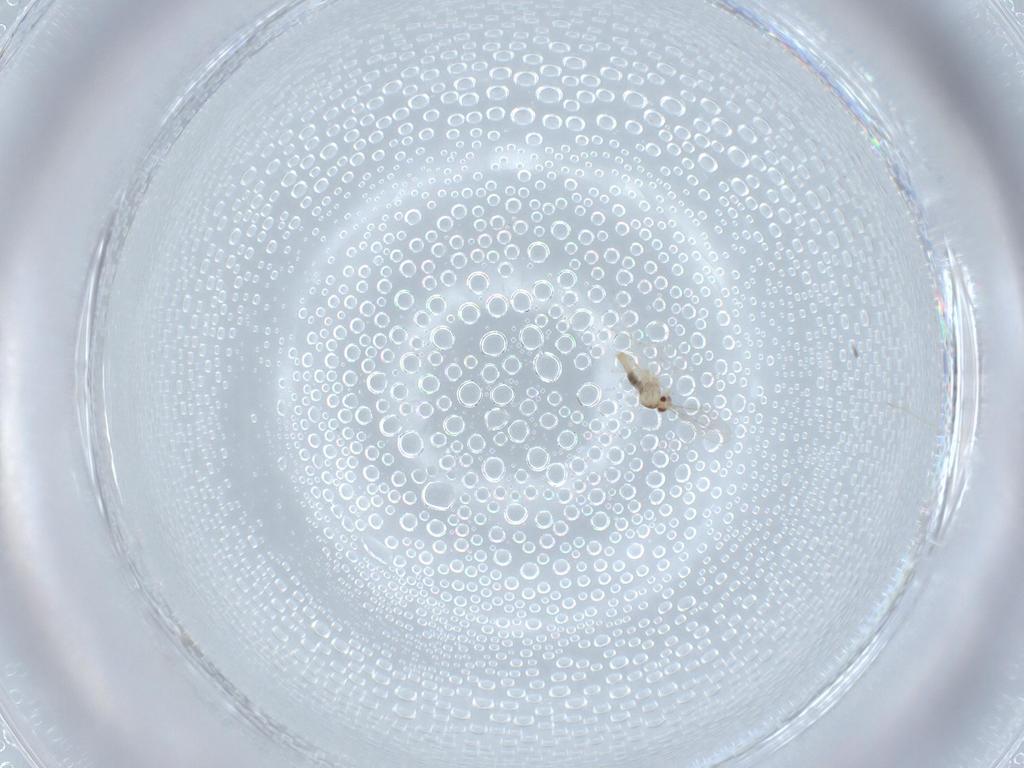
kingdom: Animalia
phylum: Arthropoda
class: Insecta
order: Diptera
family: Cecidomyiidae
